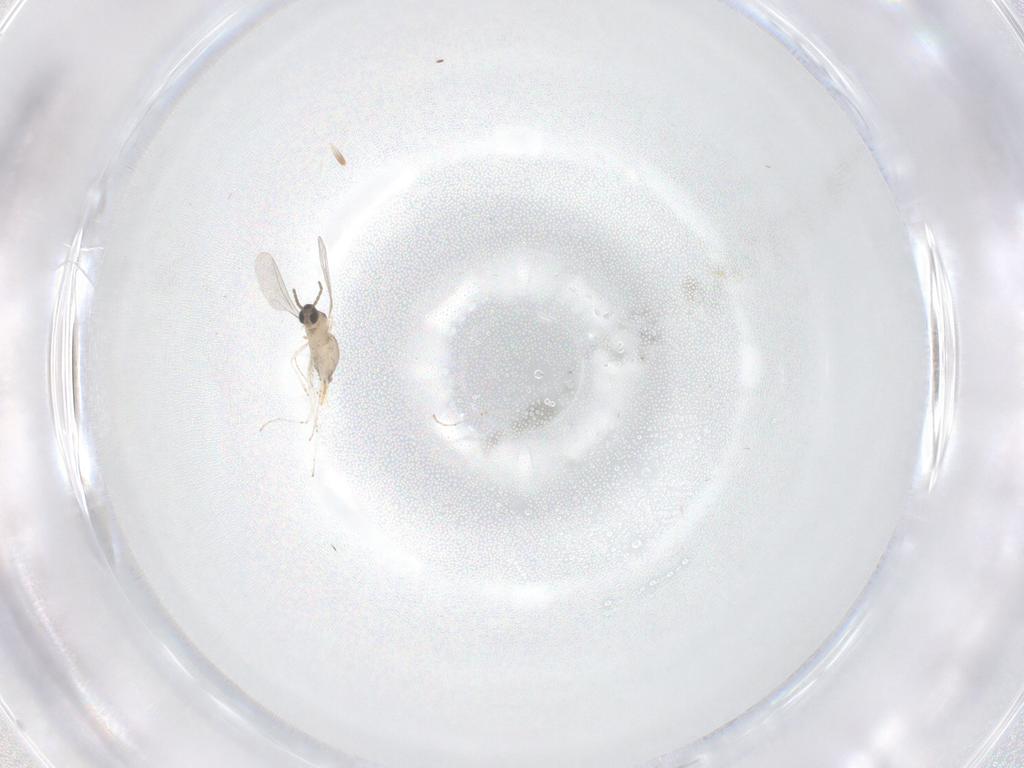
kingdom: Animalia
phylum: Arthropoda
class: Insecta
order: Diptera
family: Cecidomyiidae
